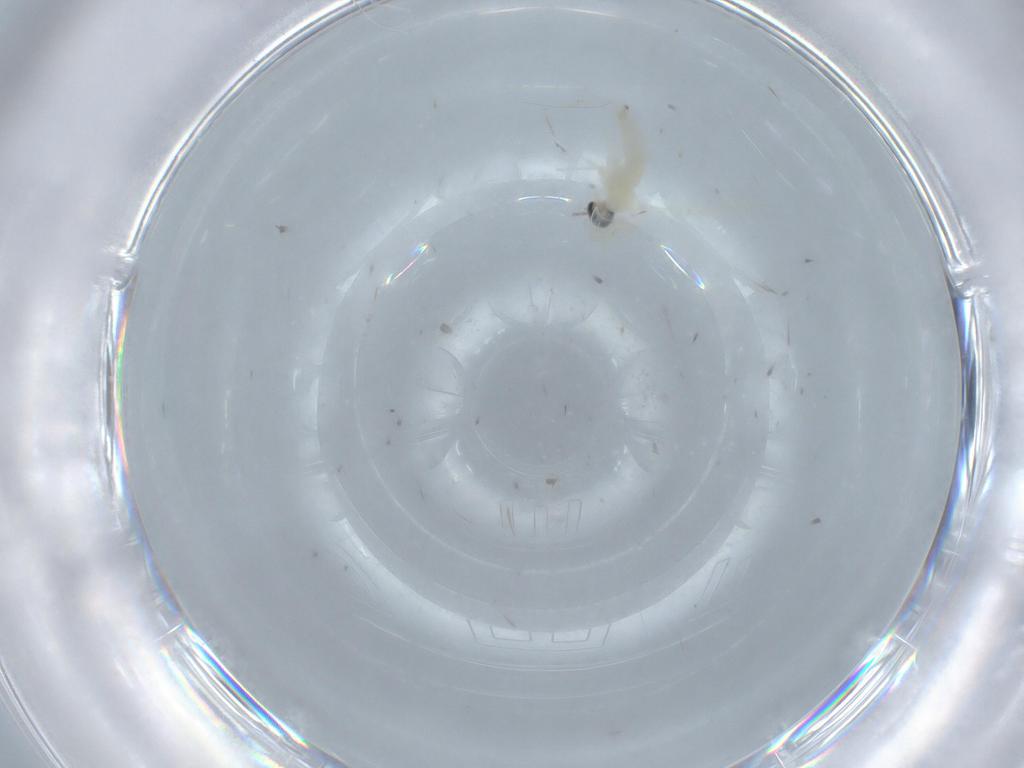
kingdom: Animalia
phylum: Arthropoda
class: Insecta
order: Diptera
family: Cecidomyiidae
